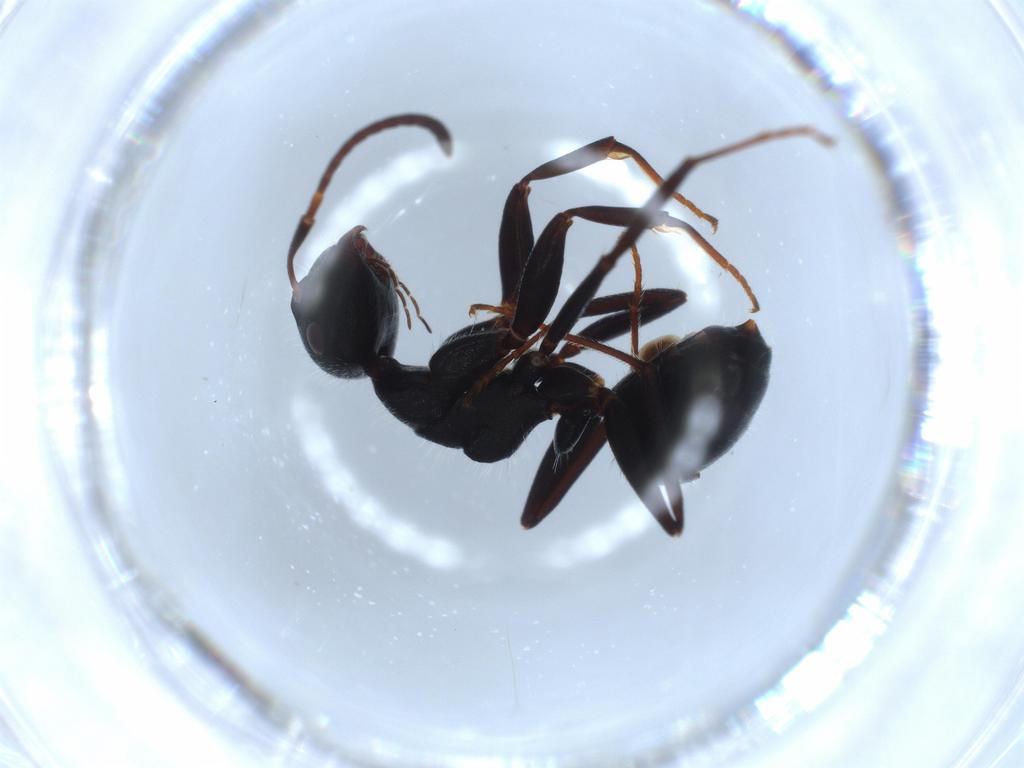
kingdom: Animalia
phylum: Arthropoda
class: Insecta
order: Hymenoptera
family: Formicidae
